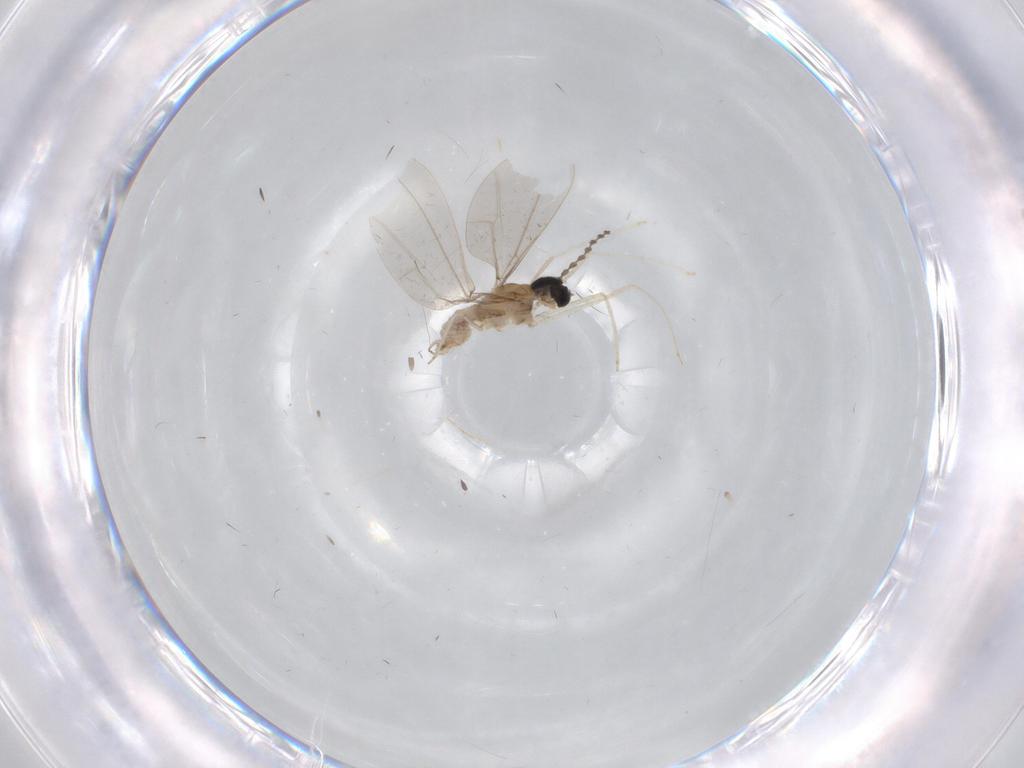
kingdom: Animalia
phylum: Arthropoda
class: Insecta
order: Diptera
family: Cecidomyiidae
